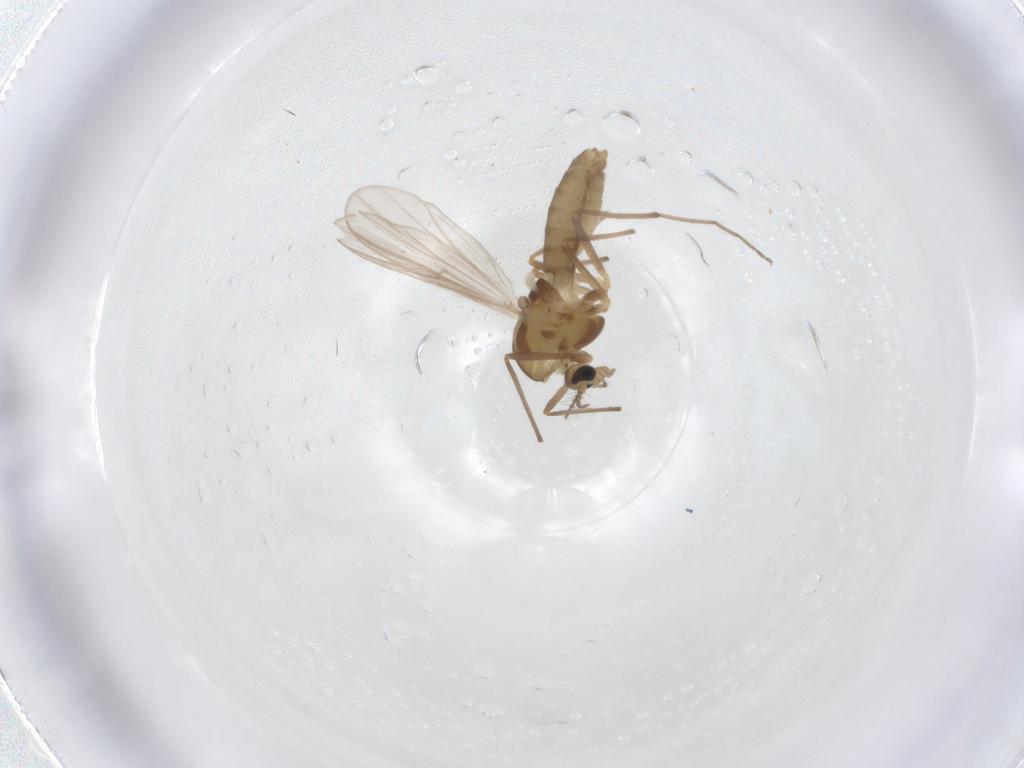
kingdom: Animalia
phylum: Arthropoda
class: Insecta
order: Diptera
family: Chironomidae
